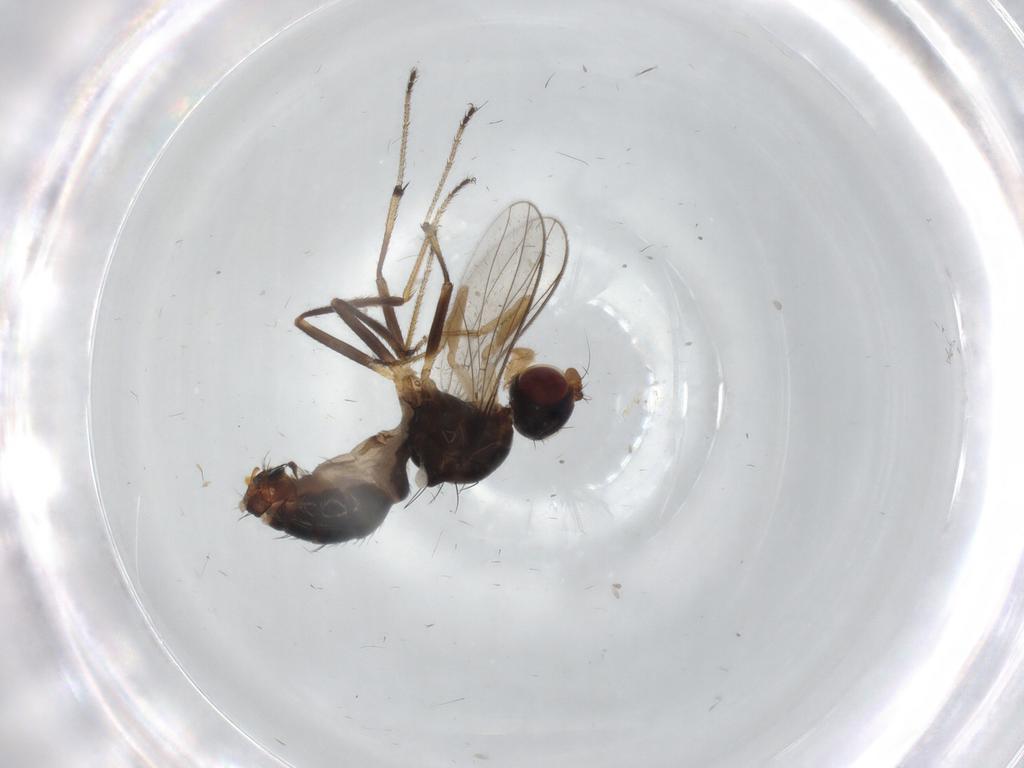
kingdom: Animalia
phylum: Arthropoda
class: Insecta
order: Diptera
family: Sepsidae
